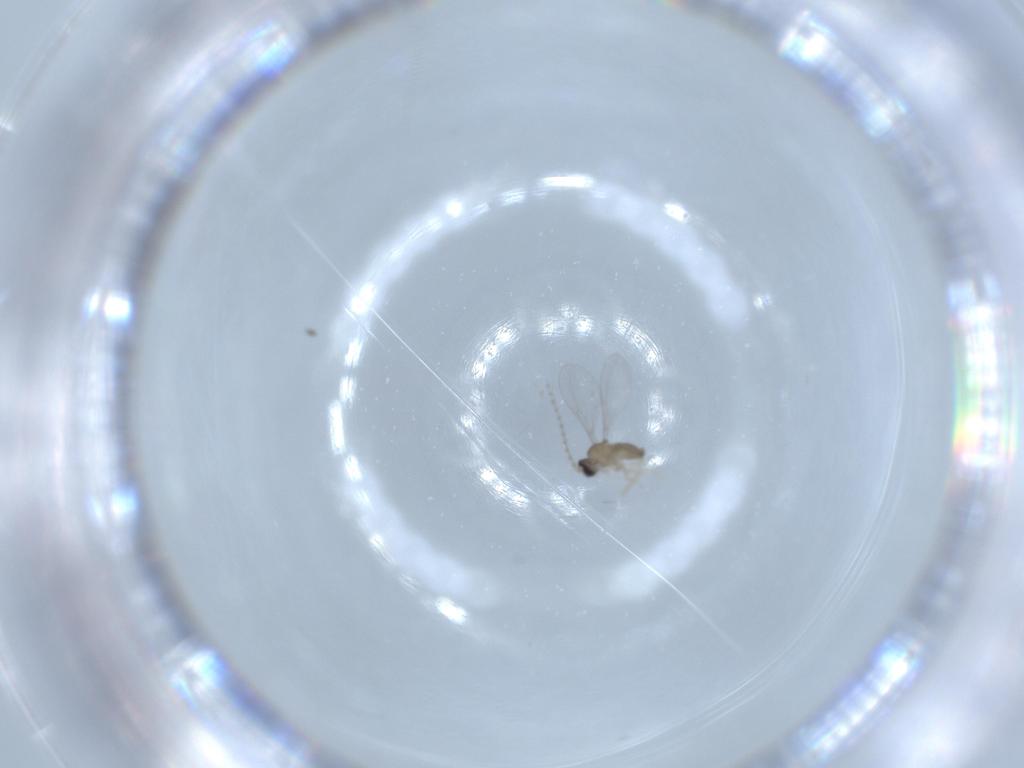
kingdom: Animalia
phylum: Arthropoda
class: Insecta
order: Diptera
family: Cecidomyiidae
